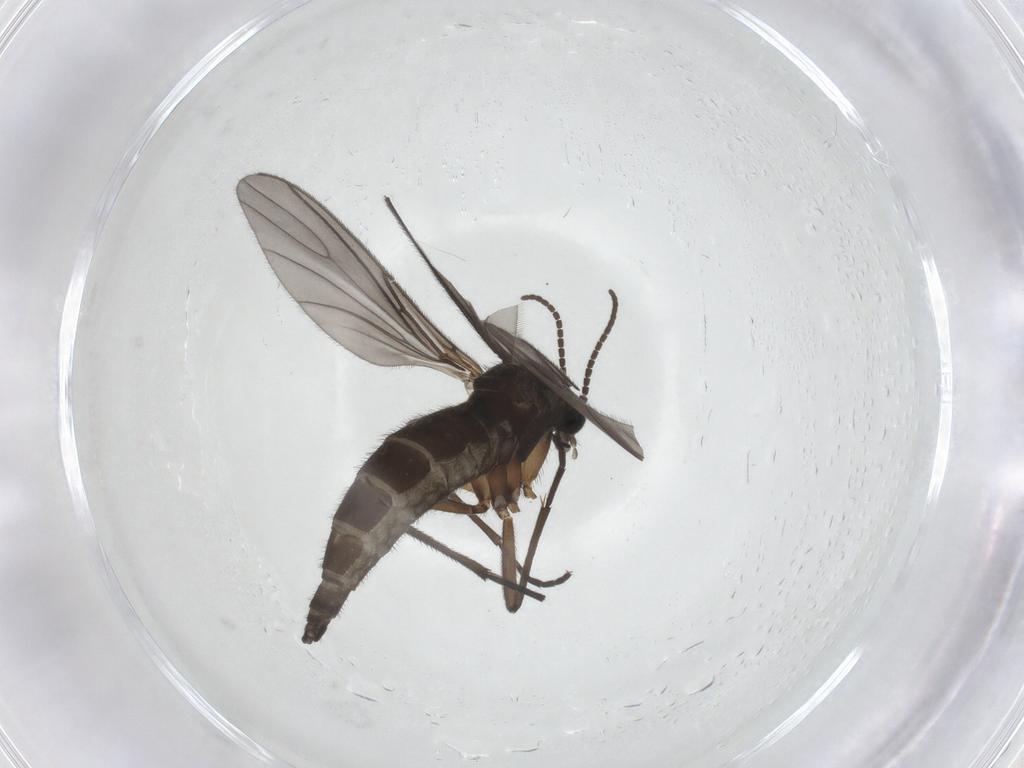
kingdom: Animalia
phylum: Arthropoda
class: Insecta
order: Diptera
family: Sciaridae
